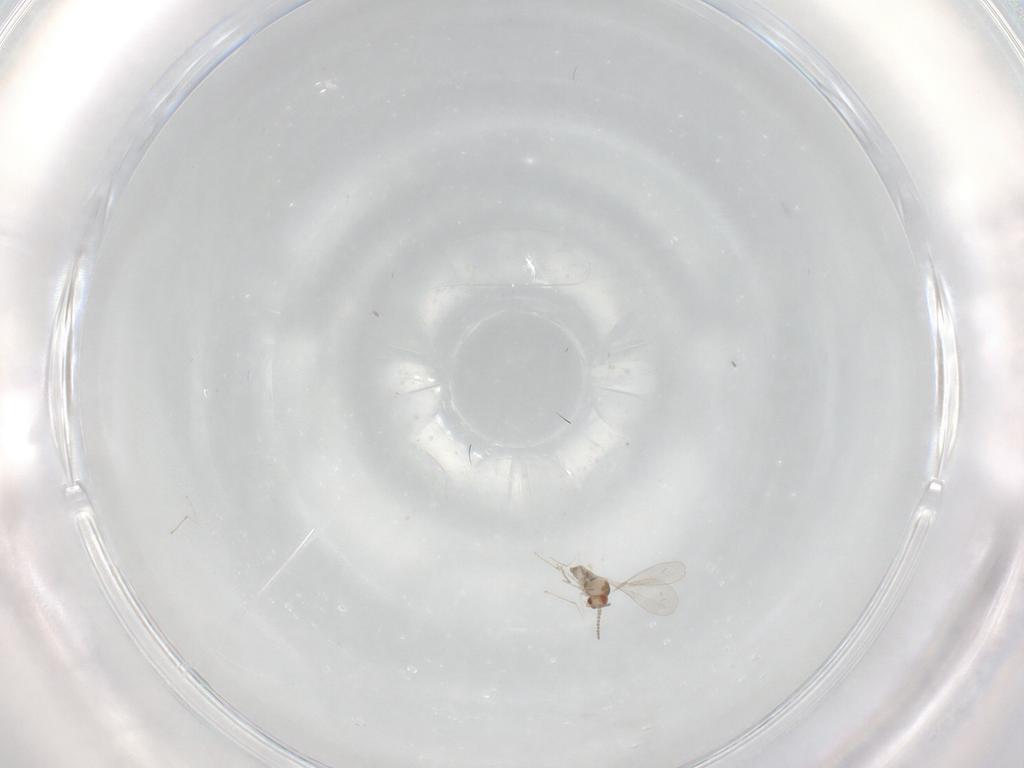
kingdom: Animalia
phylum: Arthropoda
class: Insecta
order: Diptera
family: Cecidomyiidae
